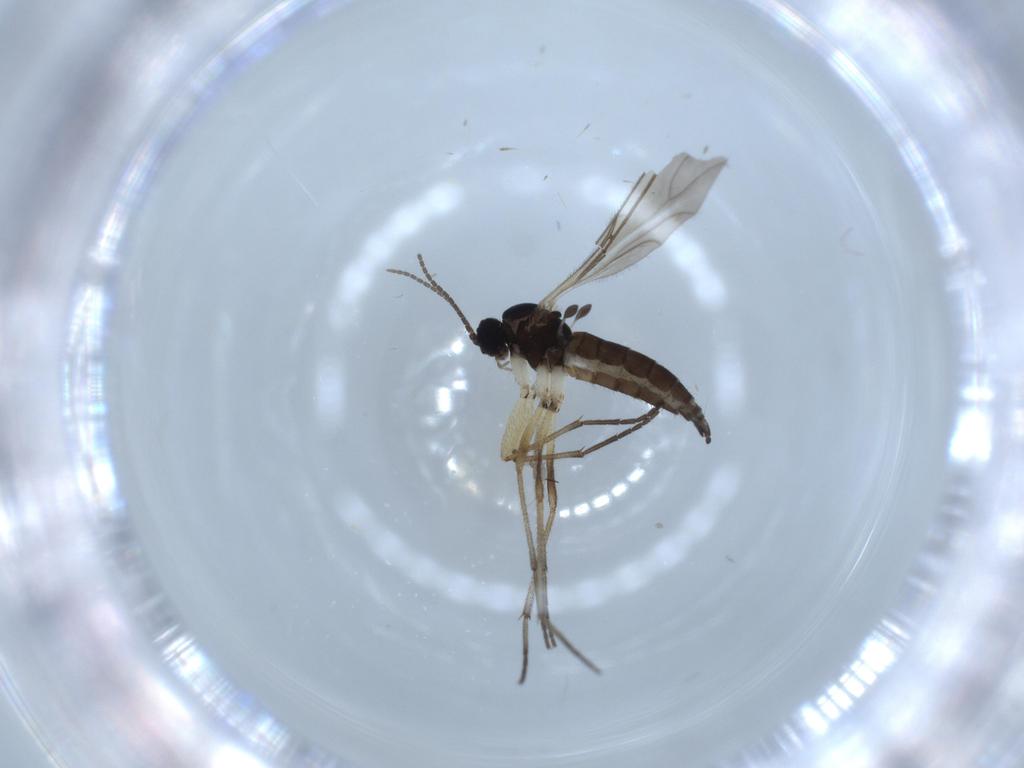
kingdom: Animalia
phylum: Arthropoda
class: Insecta
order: Diptera
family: Sciaridae
